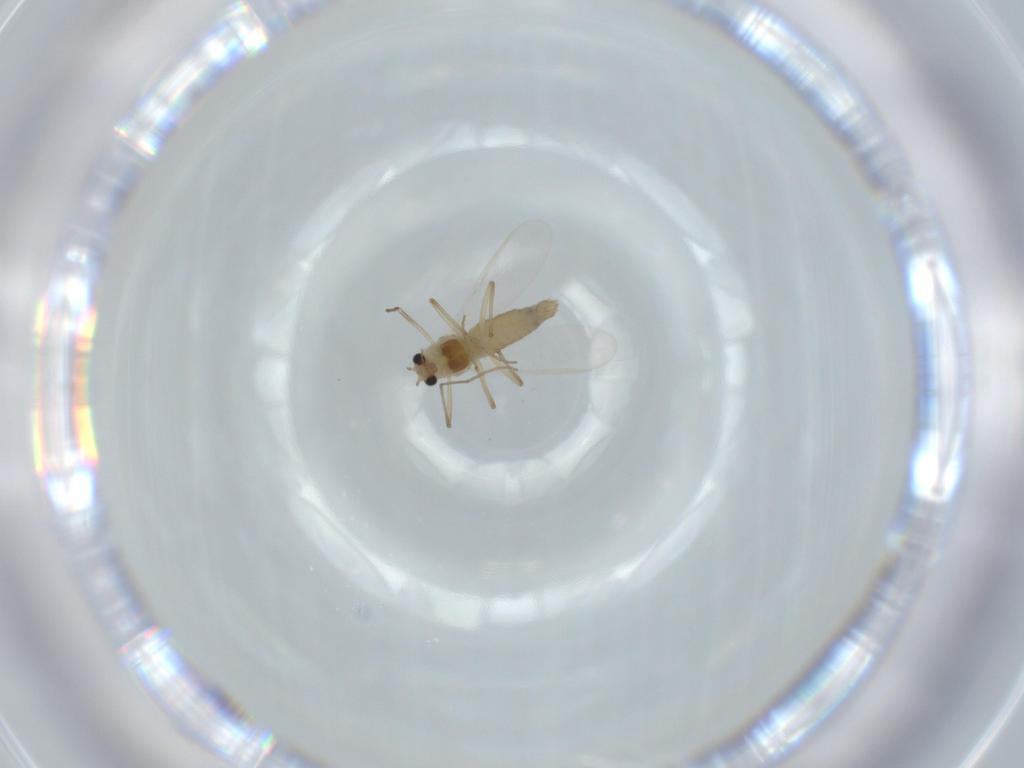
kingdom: Animalia
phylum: Arthropoda
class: Insecta
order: Diptera
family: Chironomidae
